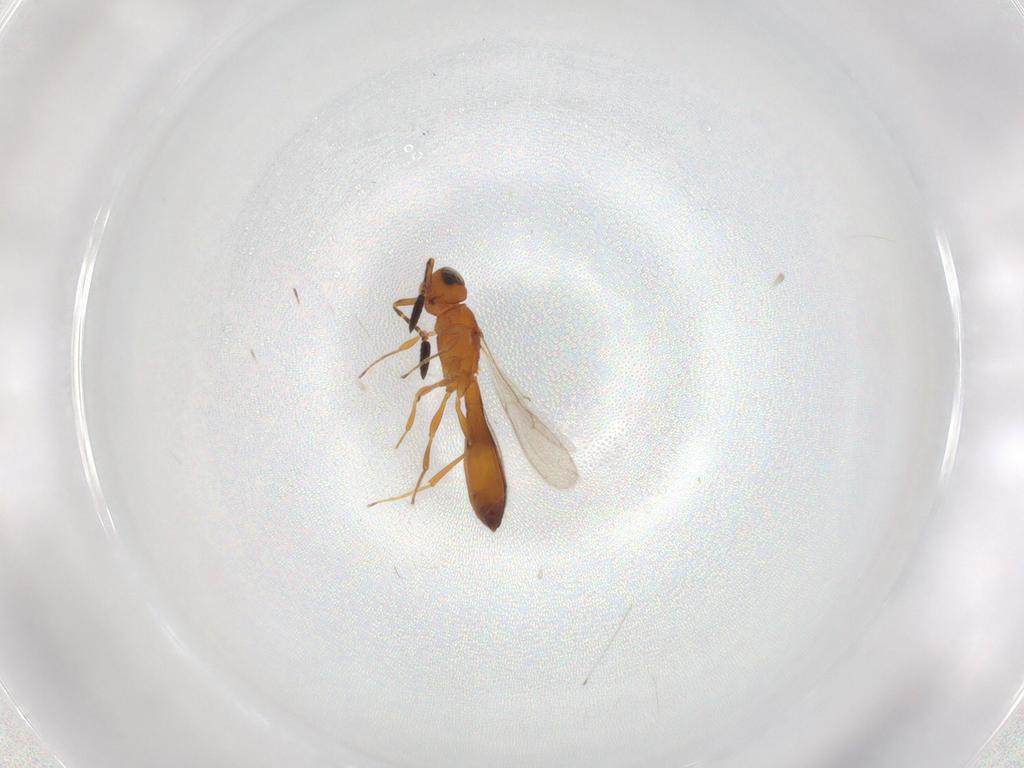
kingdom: Animalia
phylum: Arthropoda
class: Insecta
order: Hymenoptera
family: Scelionidae
